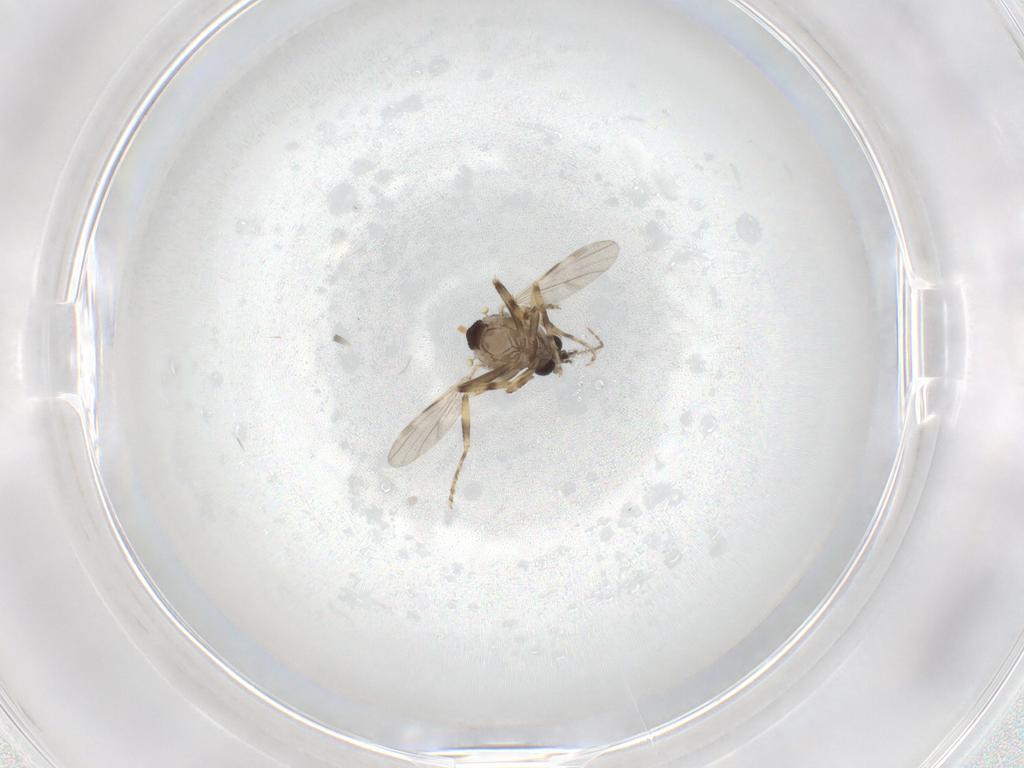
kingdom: Animalia
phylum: Arthropoda
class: Insecta
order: Diptera
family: Ceratopogonidae
